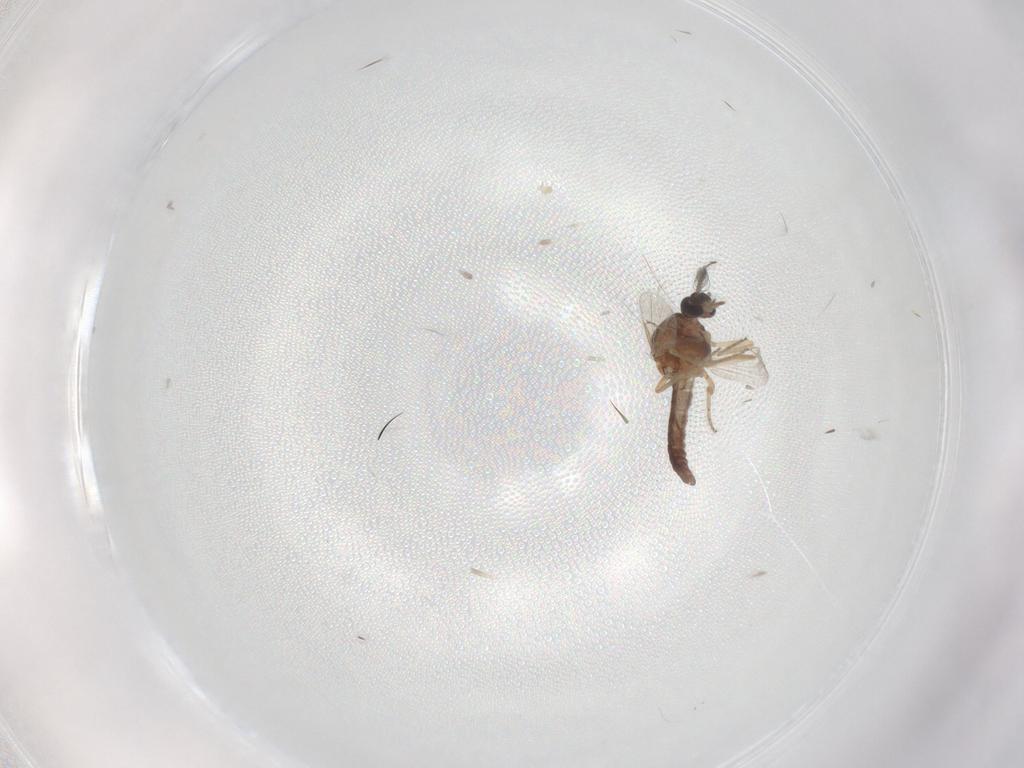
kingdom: Animalia
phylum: Arthropoda
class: Insecta
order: Diptera
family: Ceratopogonidae
